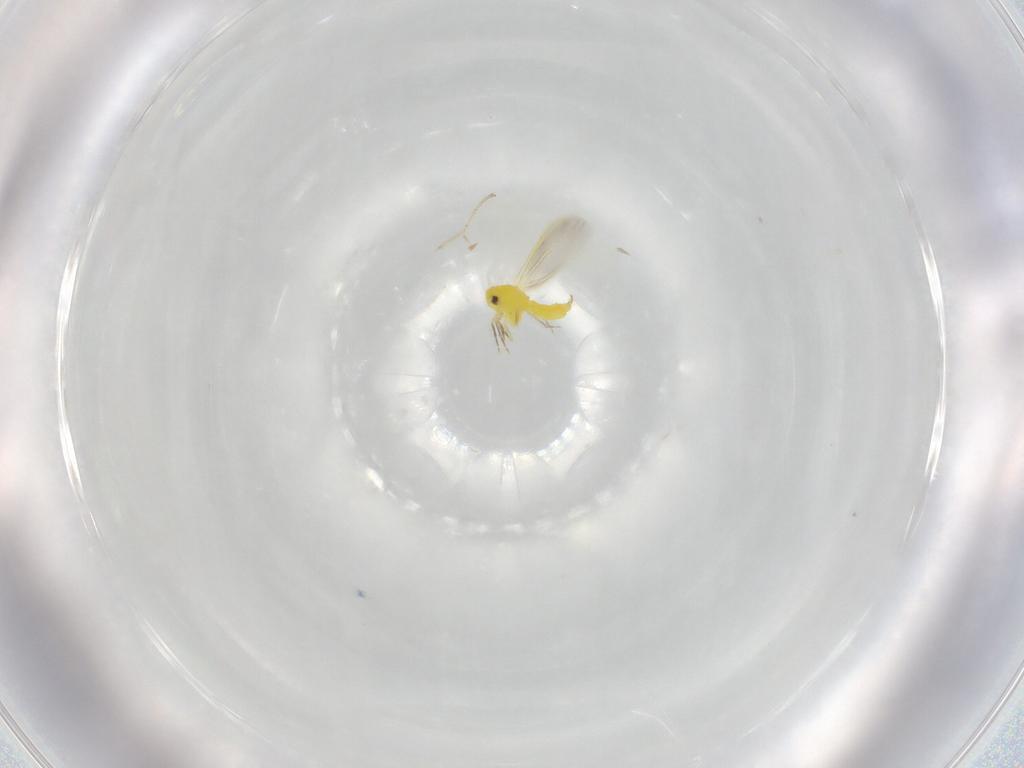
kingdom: Animalia
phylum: Arthropoda
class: Insecta
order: Hemiptera
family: Aleyrodidae
